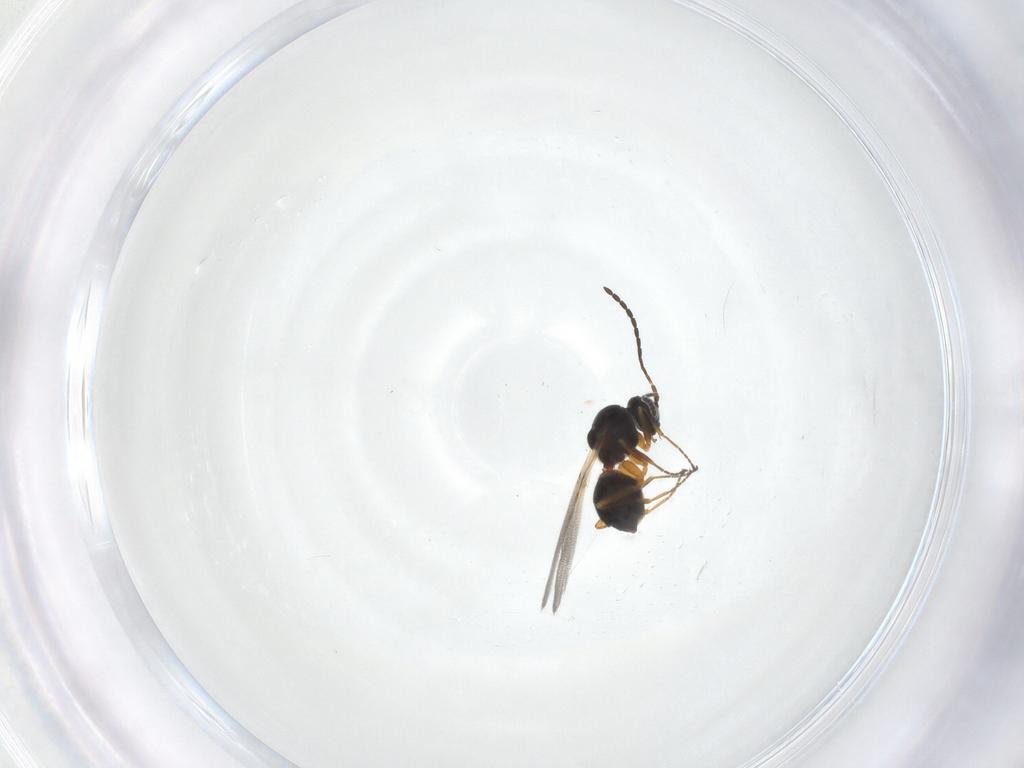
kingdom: Animalia
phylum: Arthropoda
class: Insecta
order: Hymenoptera
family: Figitidae
